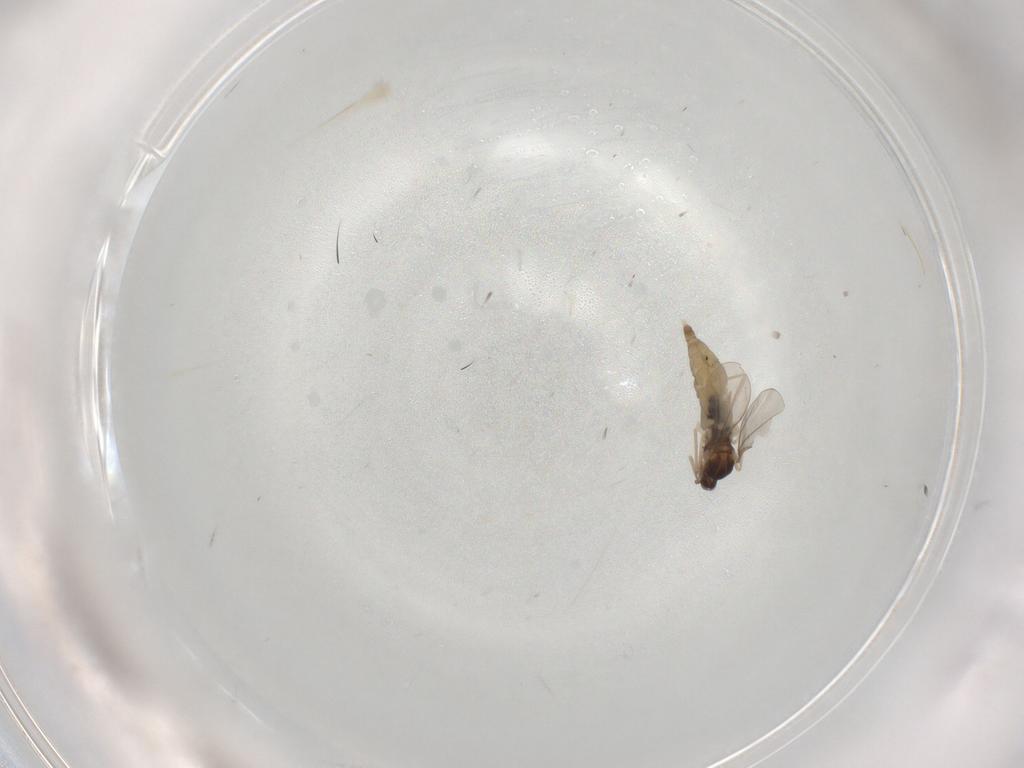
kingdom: Animalia
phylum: Arthropoda
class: Insecta
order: Diptera
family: Cecidomyiidae
